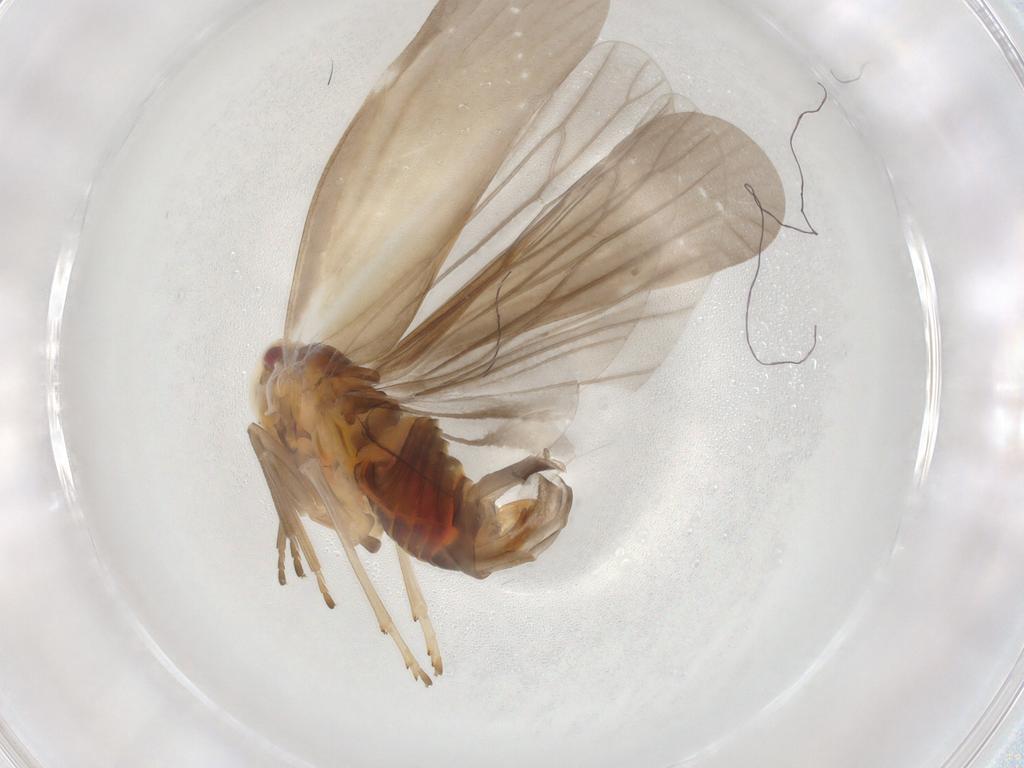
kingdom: Animalia
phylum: Arthropoda
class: Insecta
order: Hemiptera
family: Derbidae
